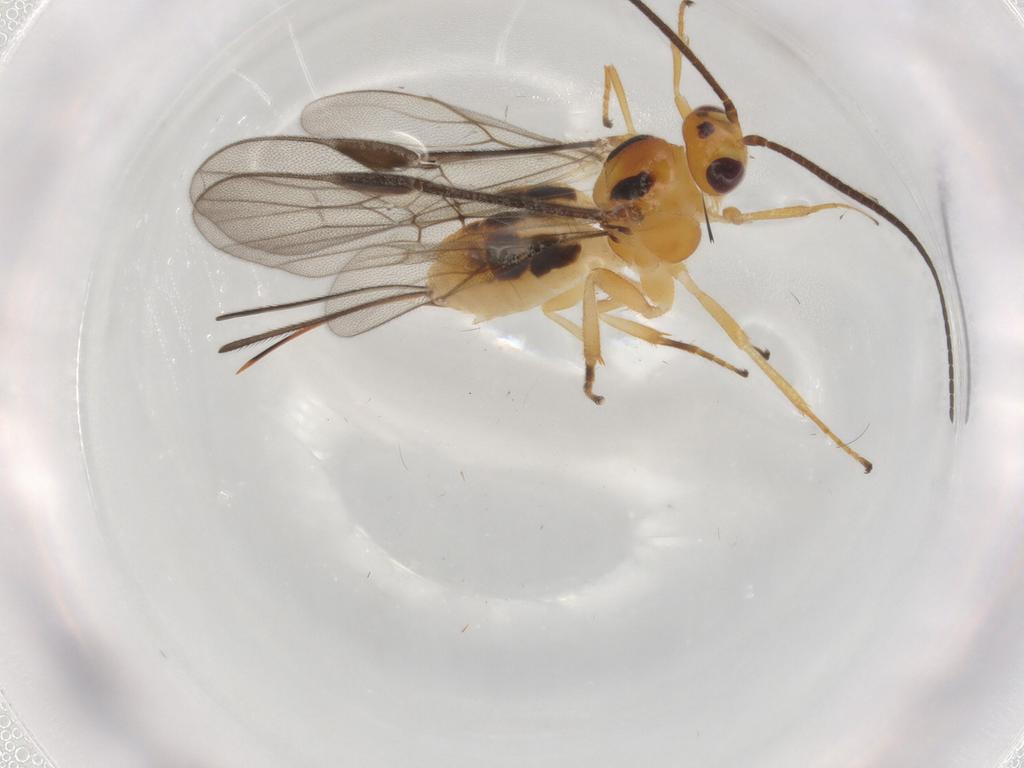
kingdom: Animalia
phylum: Arthropoda
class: Insecta
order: Hymenoptera
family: Braconidae
